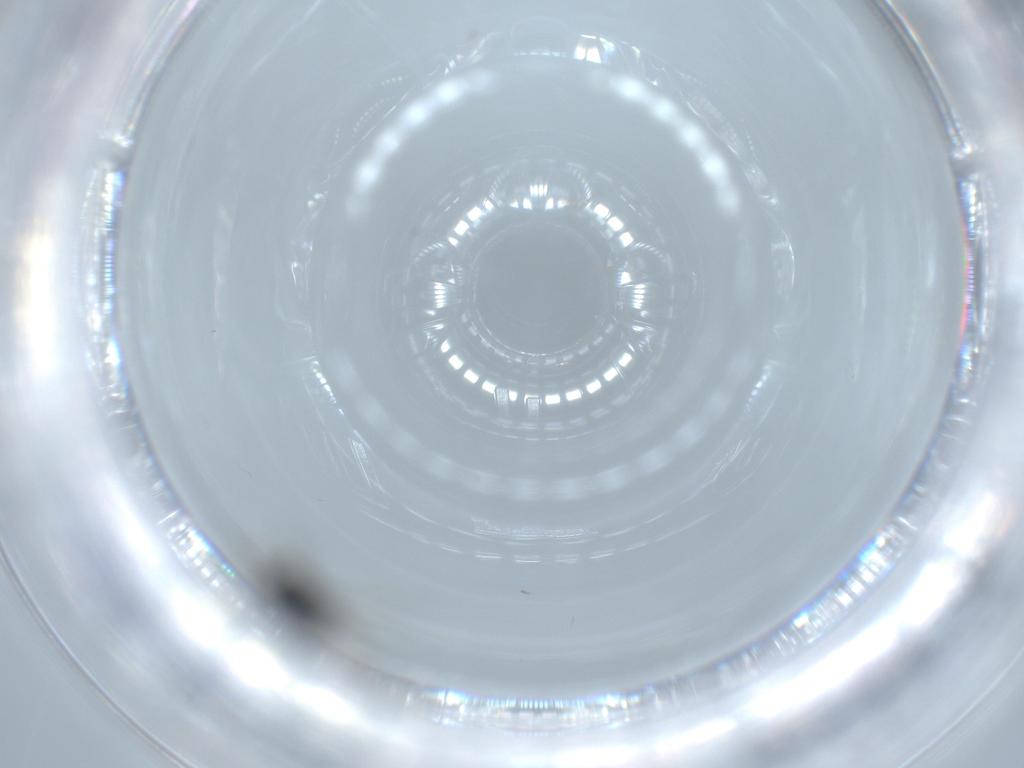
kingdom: Animalia
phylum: Arthropoda
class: Insecta
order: Hymenoptera
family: Scelionidae
